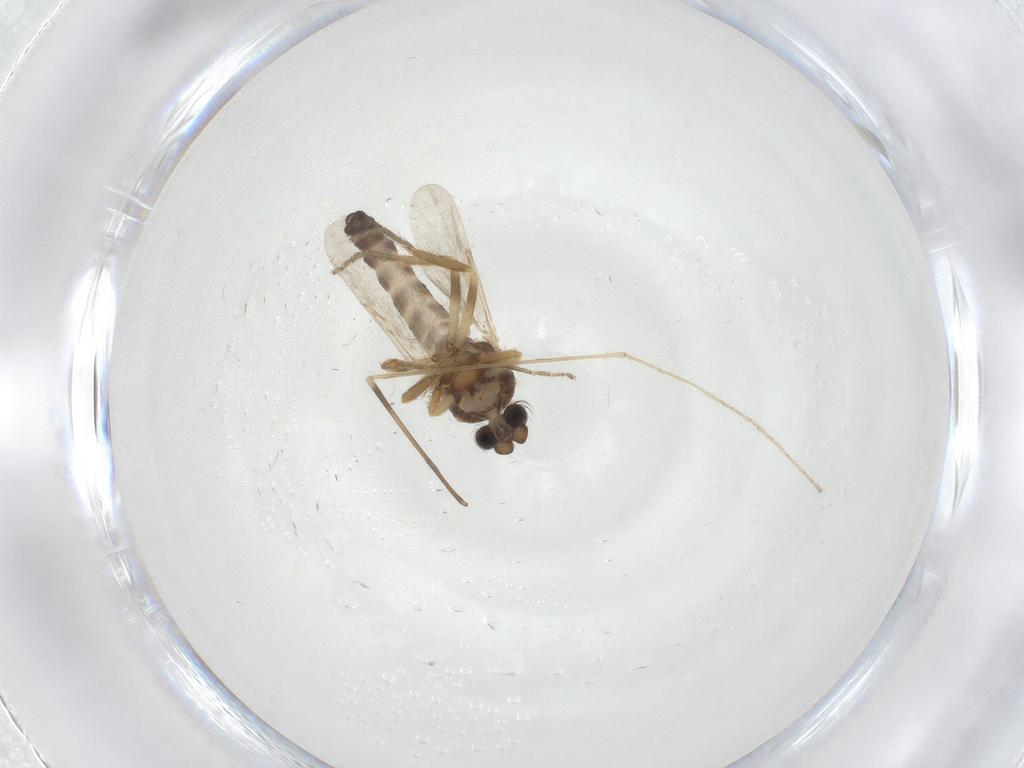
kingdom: Animalia
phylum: Arthropoda
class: Insecta
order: Diptera
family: Ceratopogonidae
